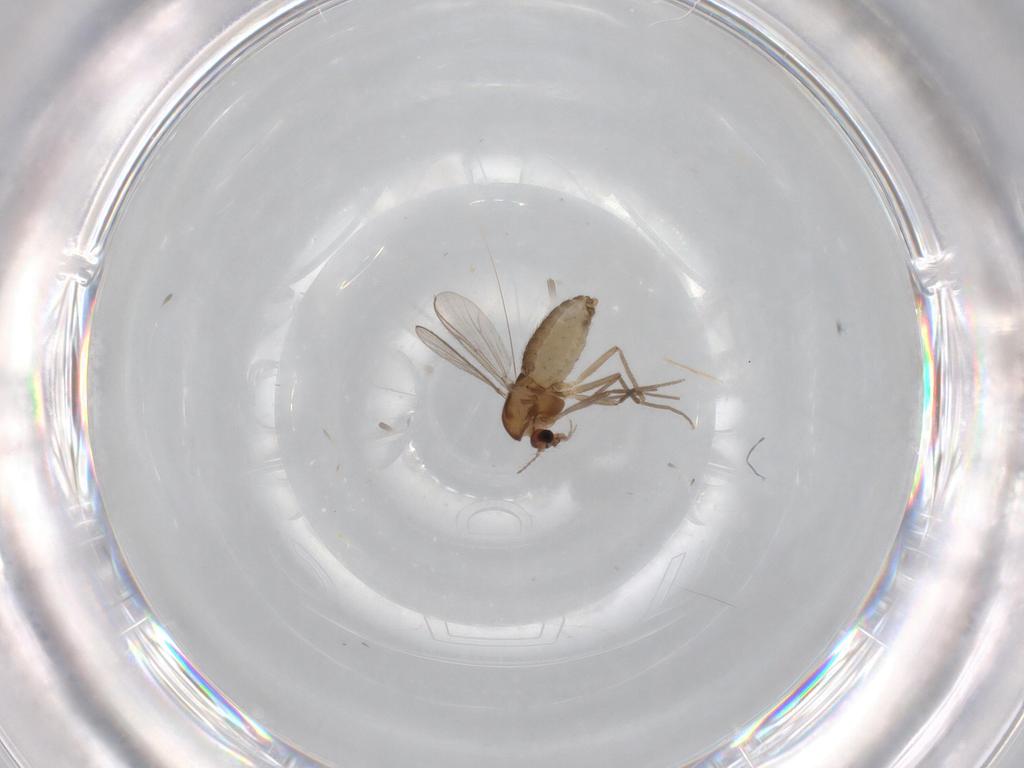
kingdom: Animalia
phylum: Arthropoda
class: Insecta
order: Diptera
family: Chironomidae
